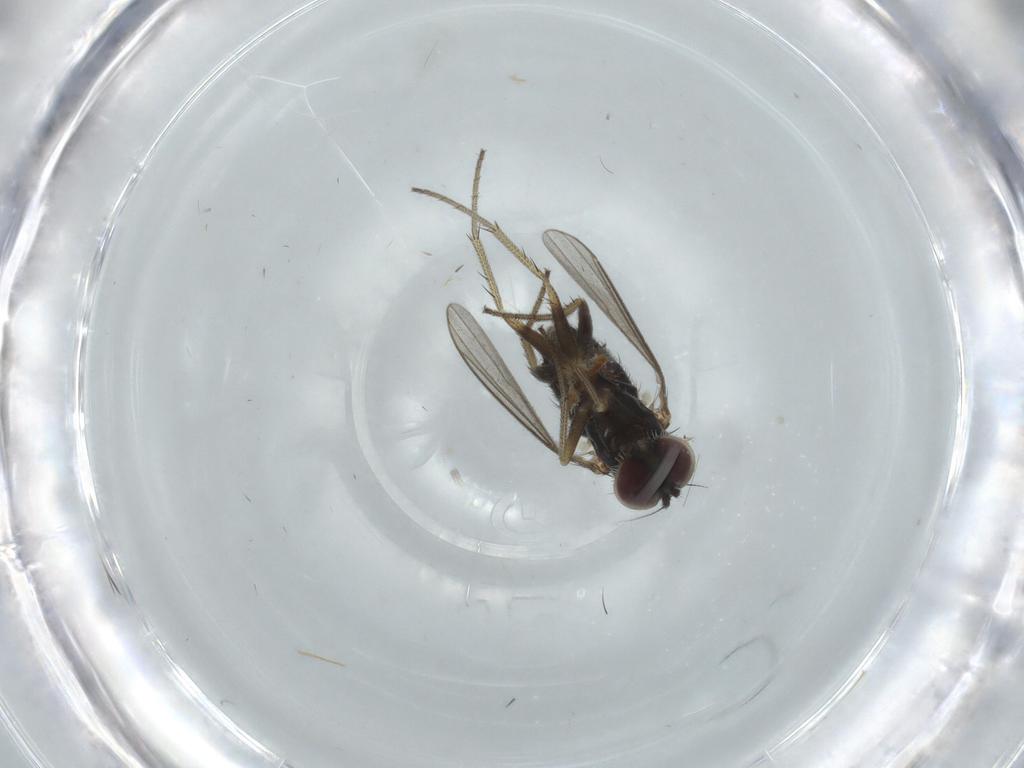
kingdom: Animalia
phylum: Arthropoda
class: Insecta
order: Diptera
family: Dolichopodidae
